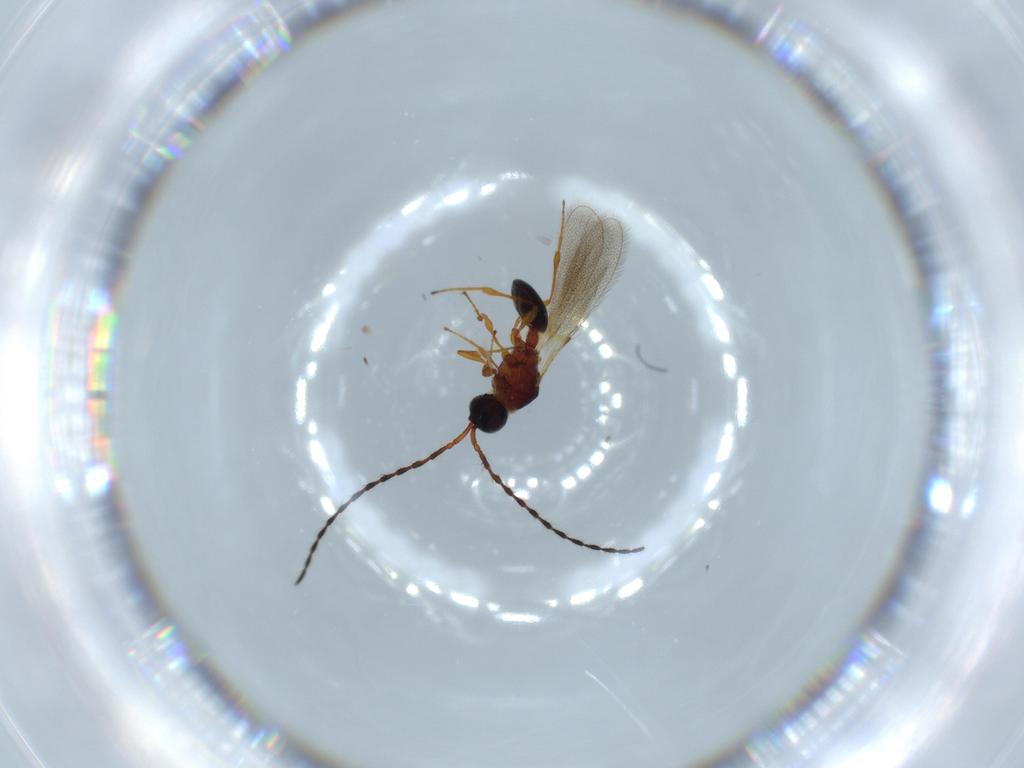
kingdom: Animalia
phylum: Arthropoda
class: Insecta
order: Hymenoptera
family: Diapriidae
